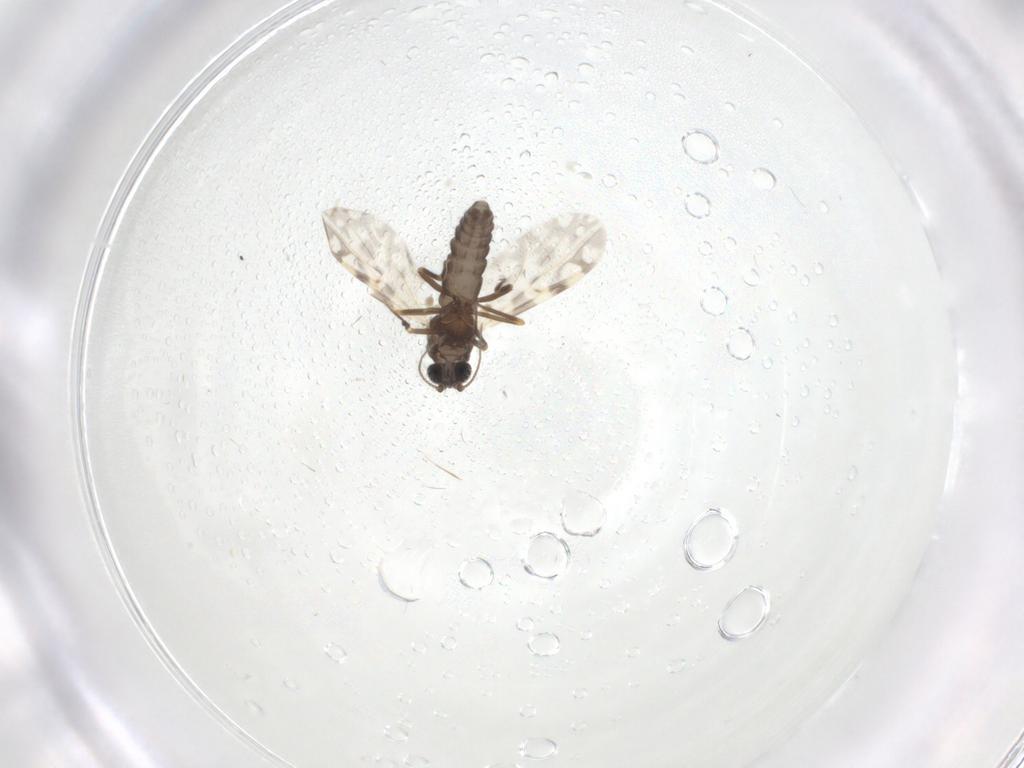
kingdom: Animalia
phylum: Arthropoda
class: Insecta
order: Diptera
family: Ceratopogonidae
